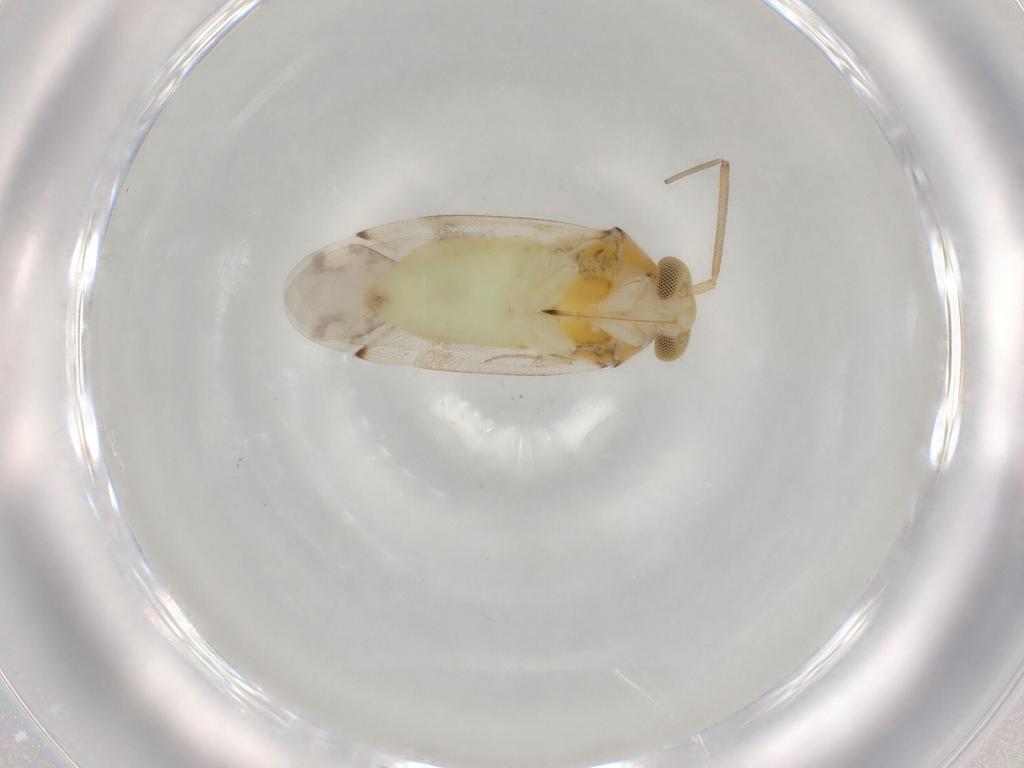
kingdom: Animalia
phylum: Arthropoda
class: Insecta
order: Hemiptera
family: Miridae
